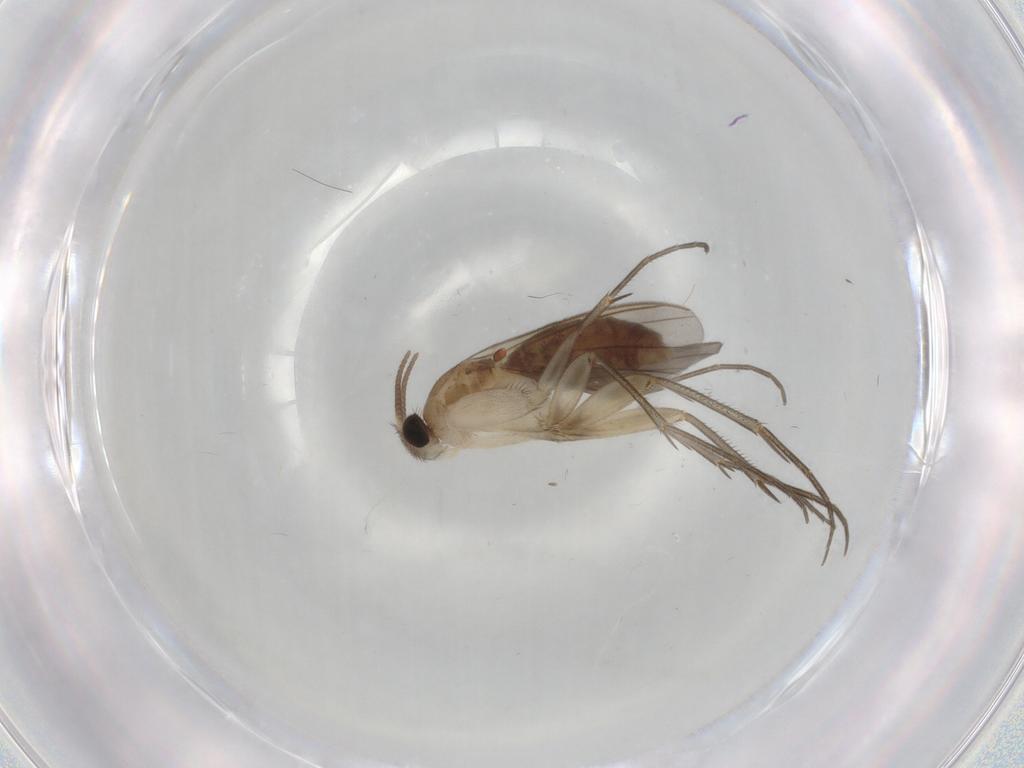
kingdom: Animalia
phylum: Arthropoda
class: Insecta
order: Diptera
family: Mycetophilidae
